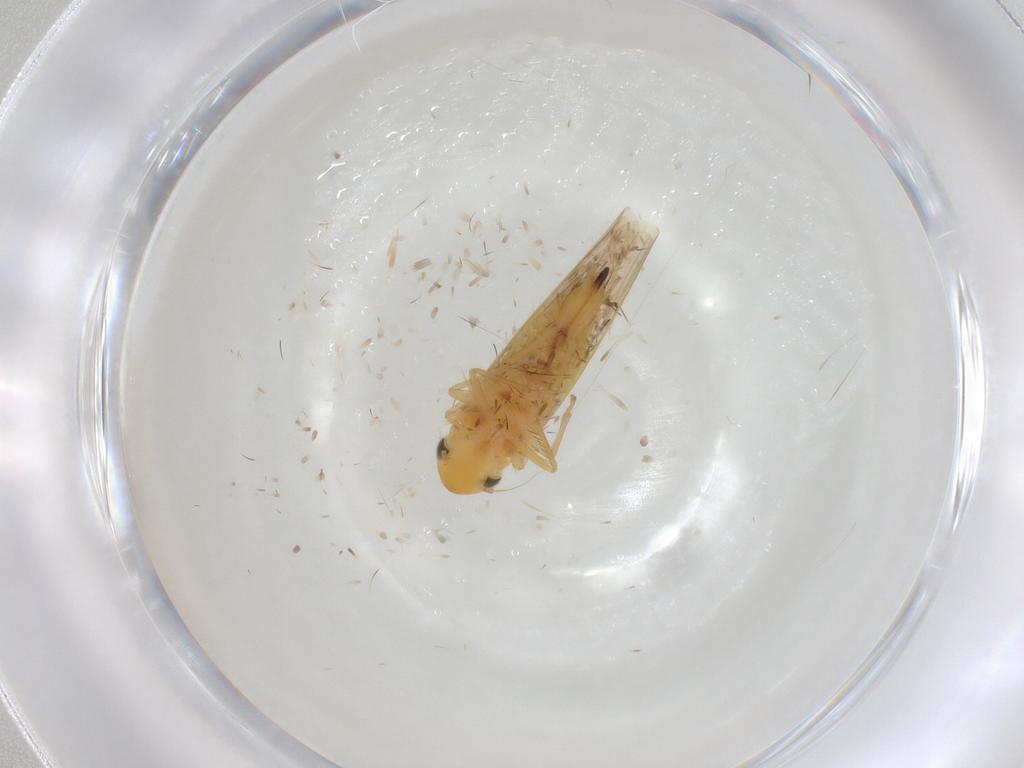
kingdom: Animalia
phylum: Arthropoda
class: Insecta
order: Hemiptera
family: Cicadellidae
